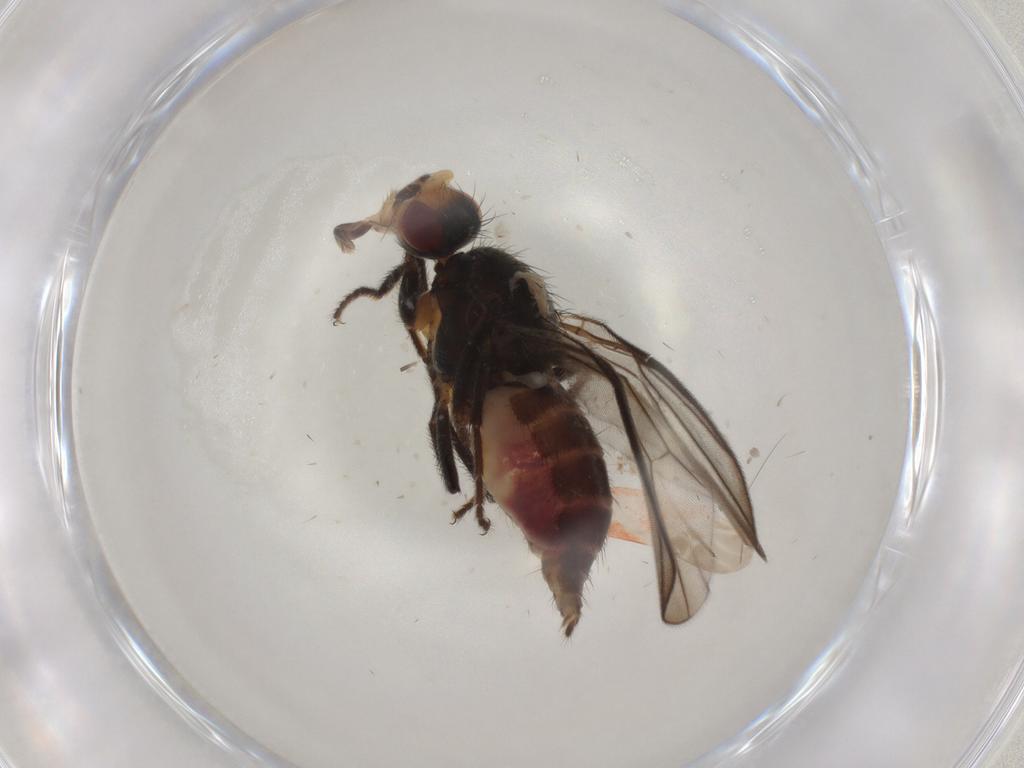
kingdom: Animalia
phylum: Arthropoda
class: Insecta
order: Diptera
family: Chloropidae
